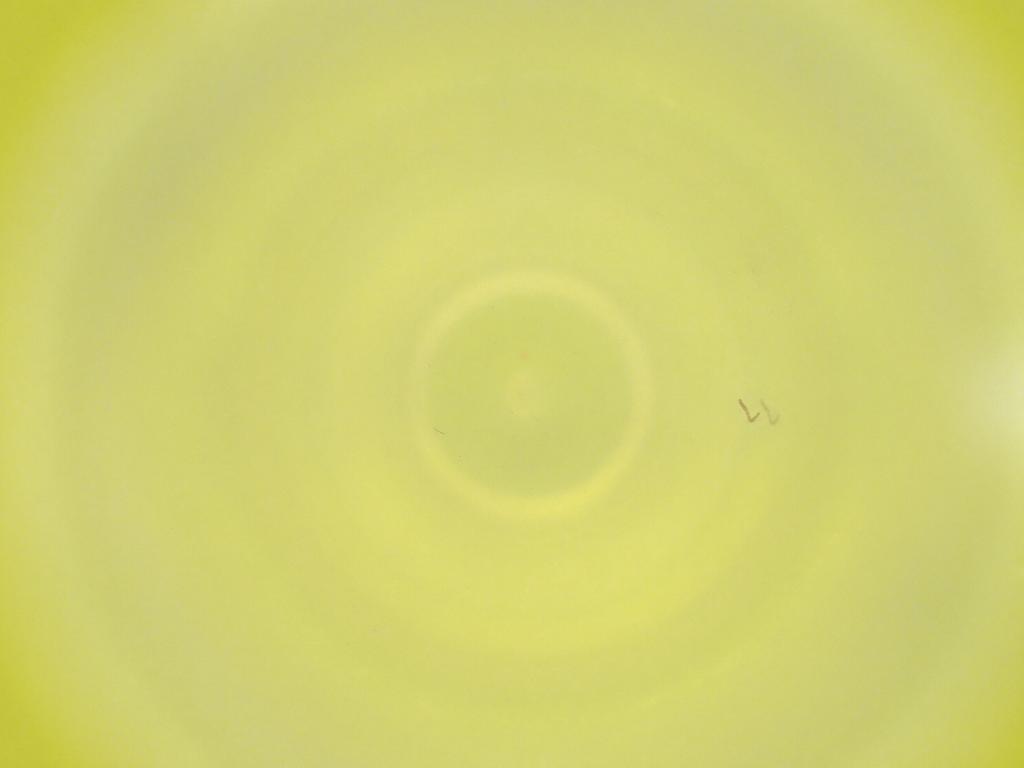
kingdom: Animalia
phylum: Arthropoda
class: Insecta
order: Diptera
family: Cecidomyiidae
